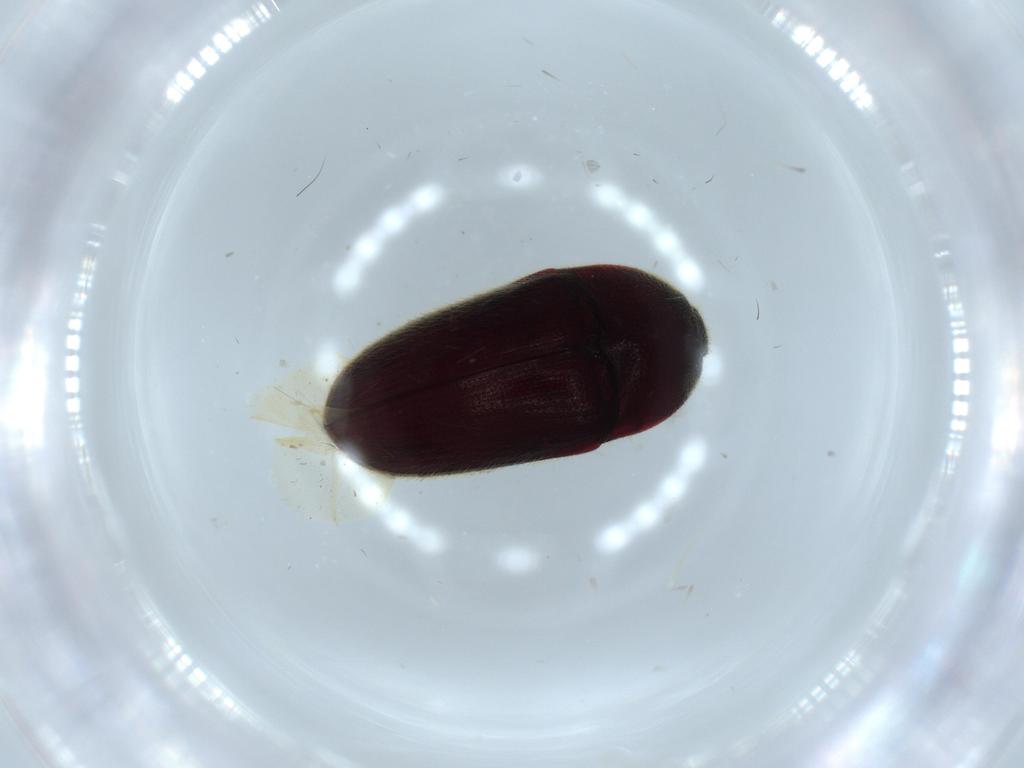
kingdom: Animalia
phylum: Arthropoda
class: Insecta
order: Coleoptera
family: Throscidae
